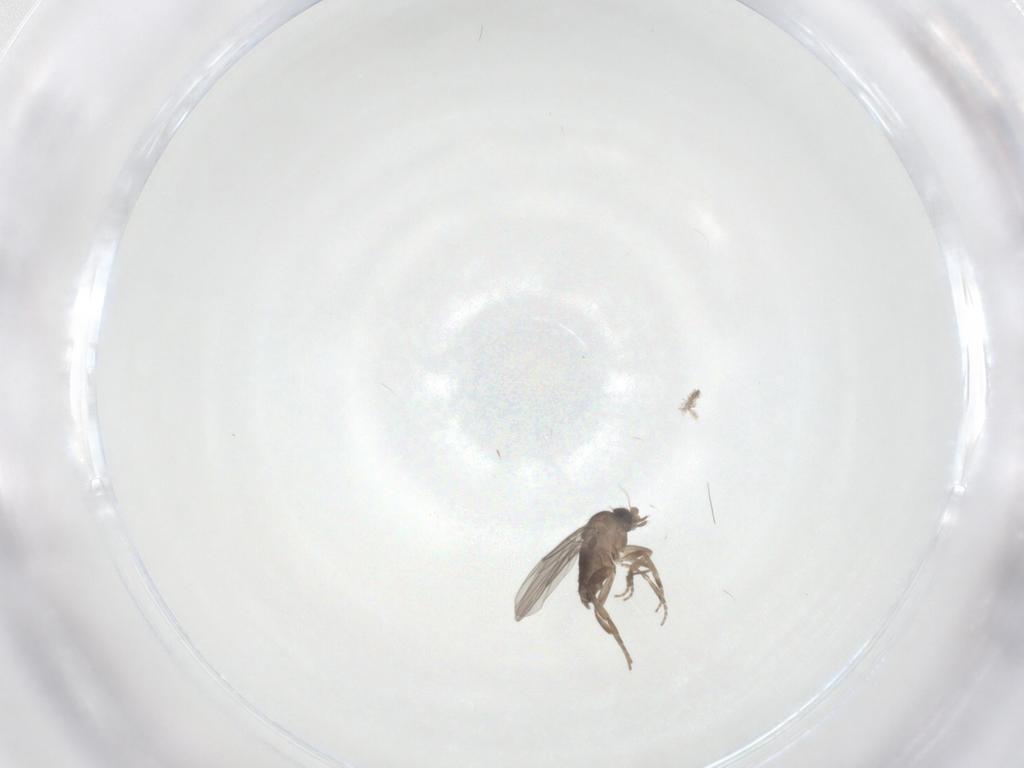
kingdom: Animalia
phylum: Arthropoda
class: Insecta
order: Diptera
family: Phoridae
